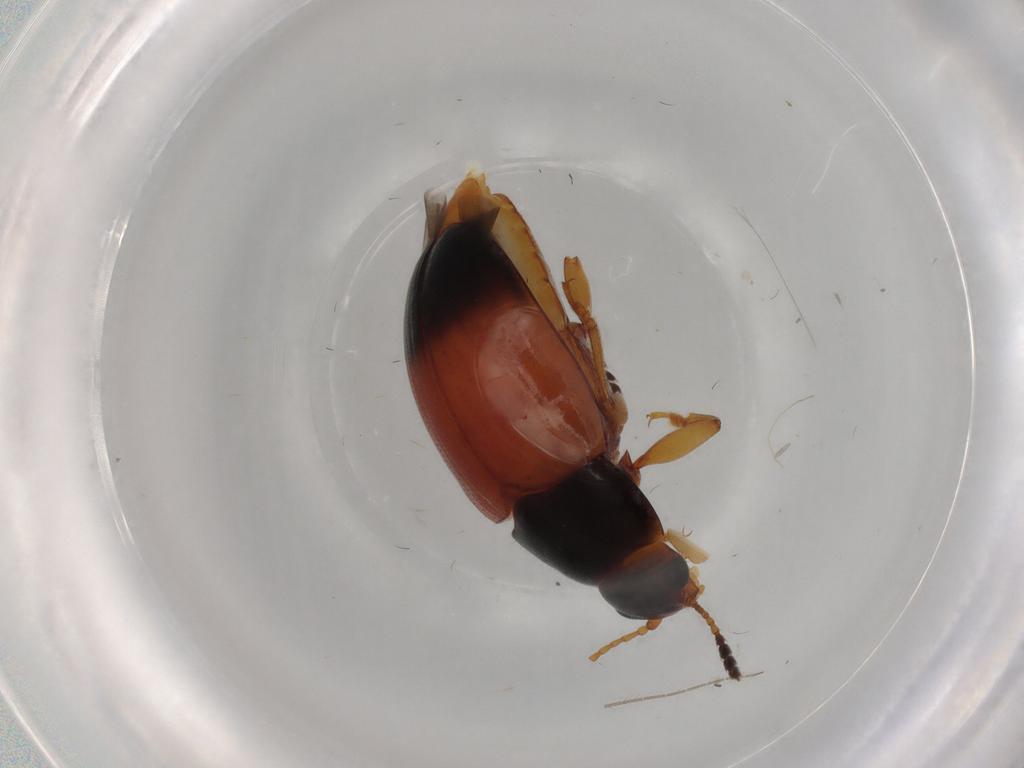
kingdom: Animalia
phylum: Arthropoda
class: Insecta
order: Coleoptera
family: Erotylidae
